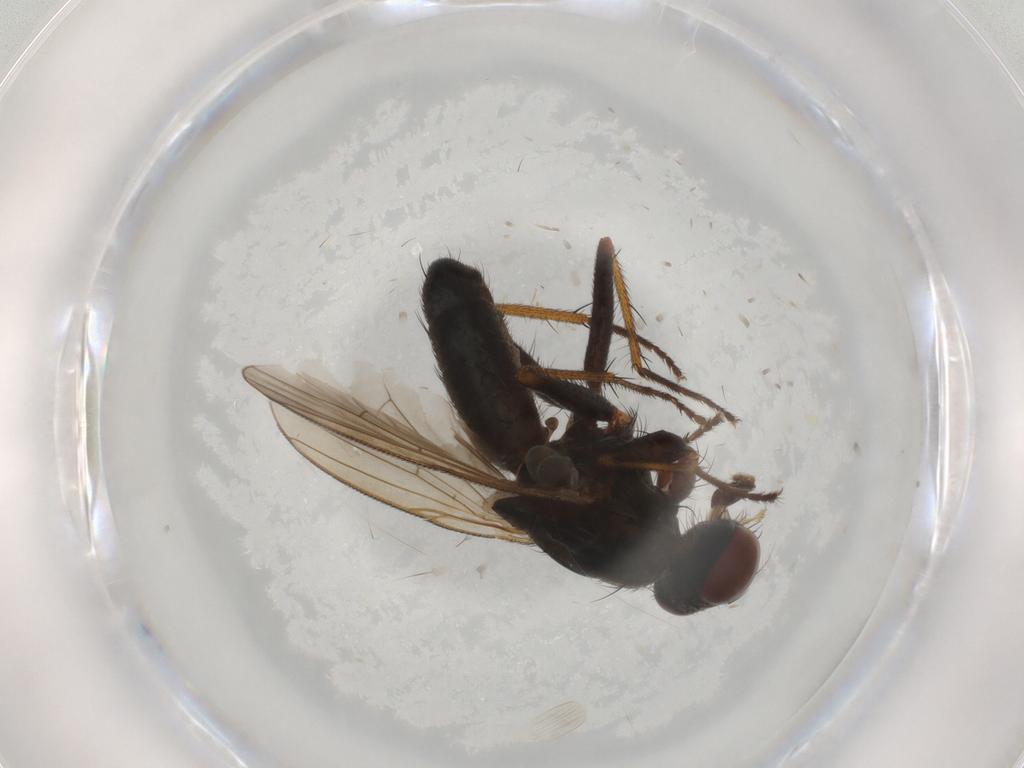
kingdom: Animalia
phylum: Arthropoda
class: Insecta
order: Diptera
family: Muscidae
